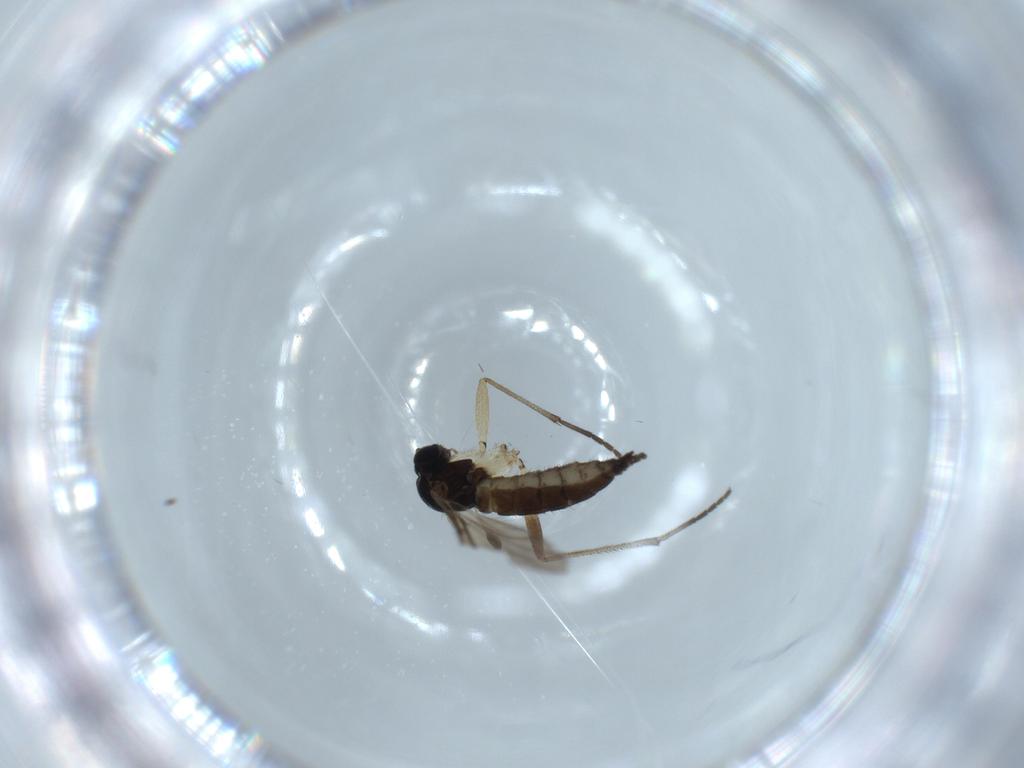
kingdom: Animalia
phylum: Arthropoda
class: Insecta
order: Diptera
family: Sciaridae
